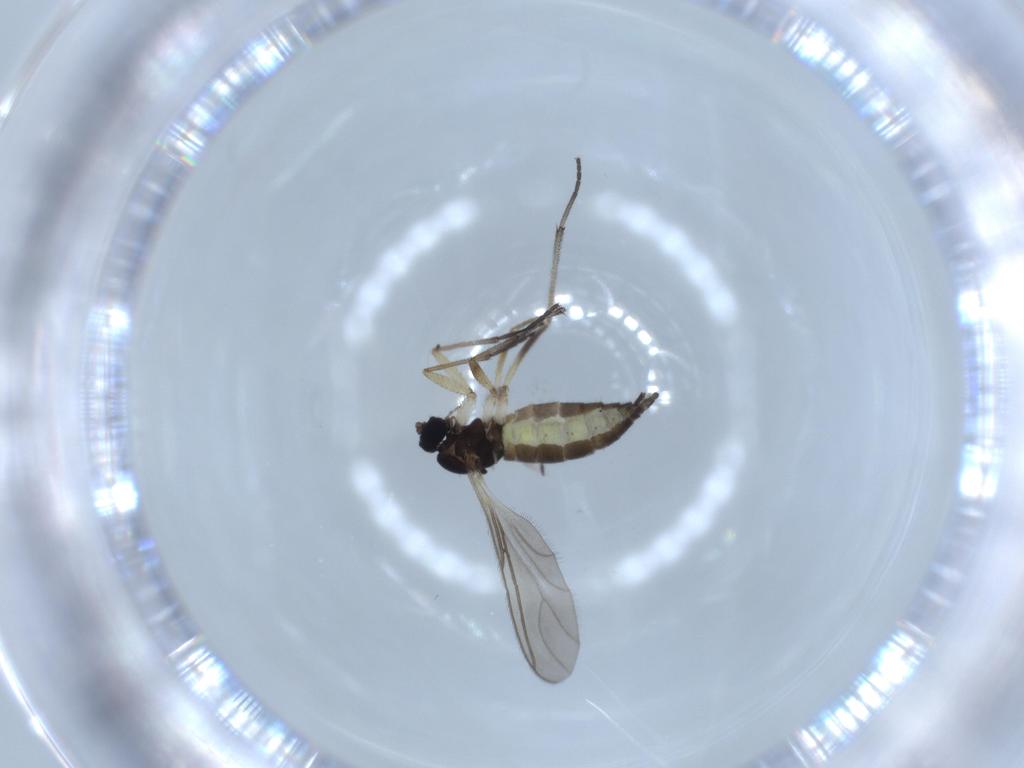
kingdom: Animalia
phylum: Arthropoda
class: Insecta
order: Diptera
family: Sciaridae
